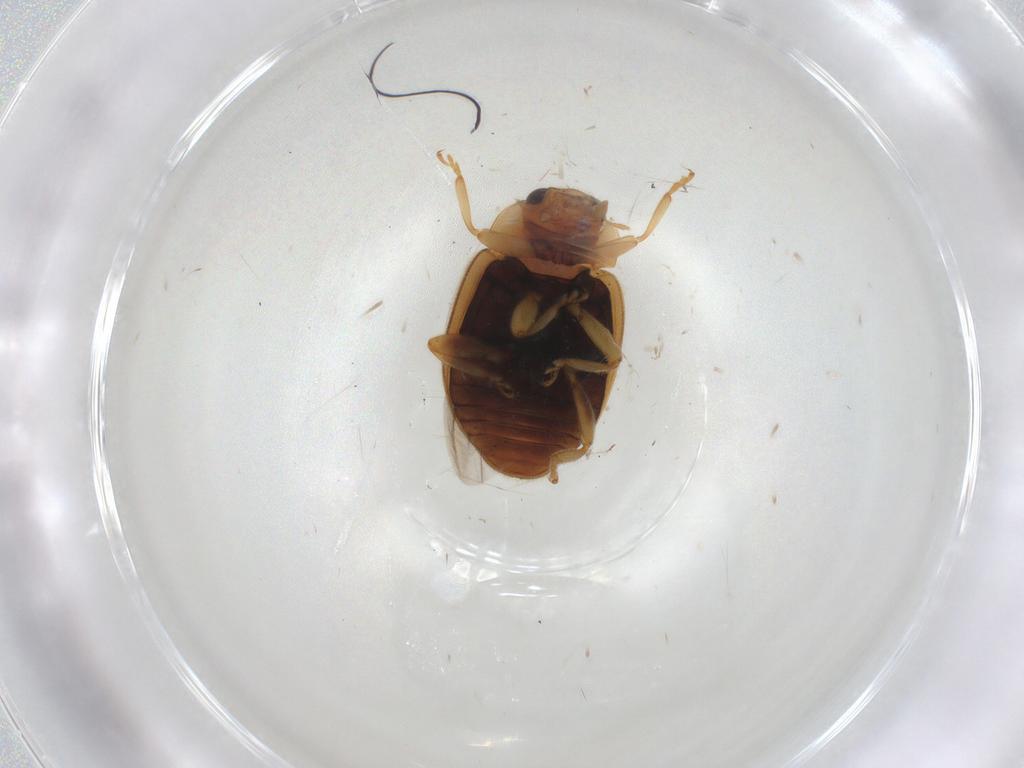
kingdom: Animalia
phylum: Arthropoda
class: Insecta
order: Coleoptera
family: Coccinellidae
